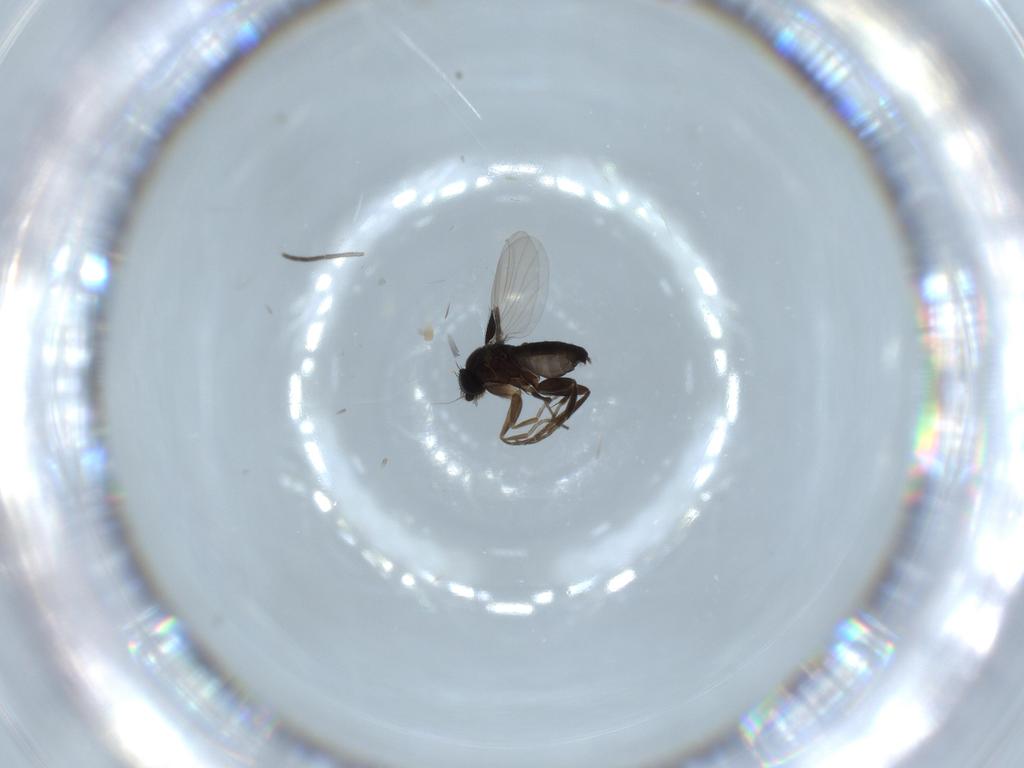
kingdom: Animalia
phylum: Arthropoda
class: Insecta
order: Diptera
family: Phoridae
